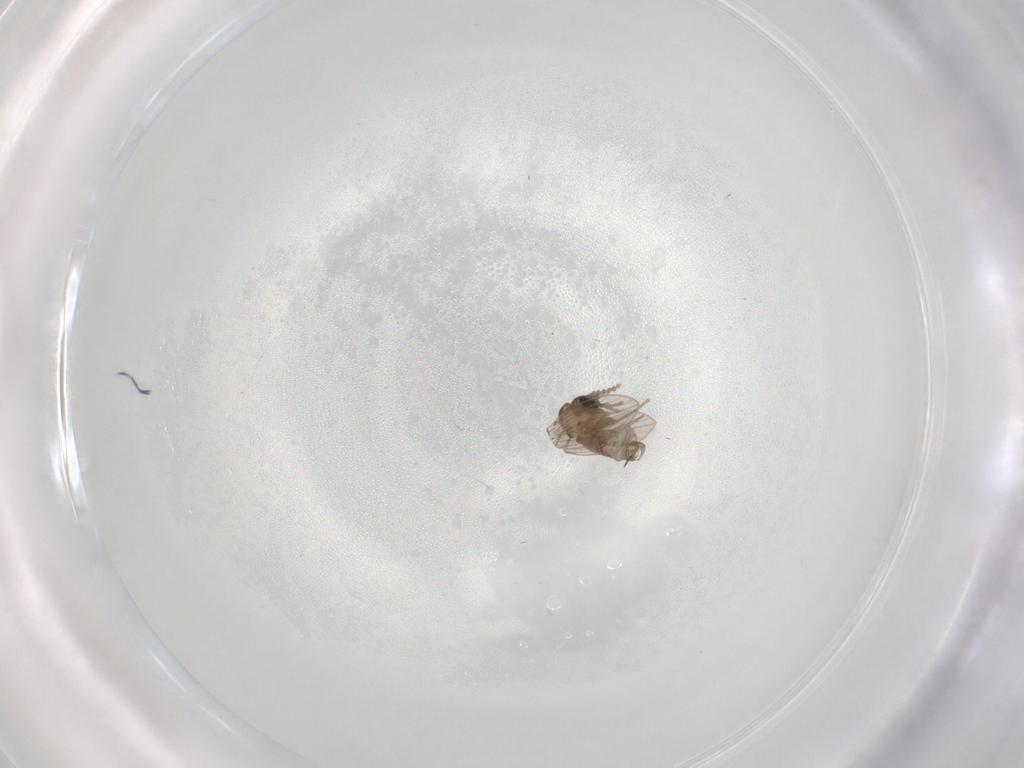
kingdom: Animalia
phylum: Arthropoda
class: Insecta
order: Diptera
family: Psychodidae
